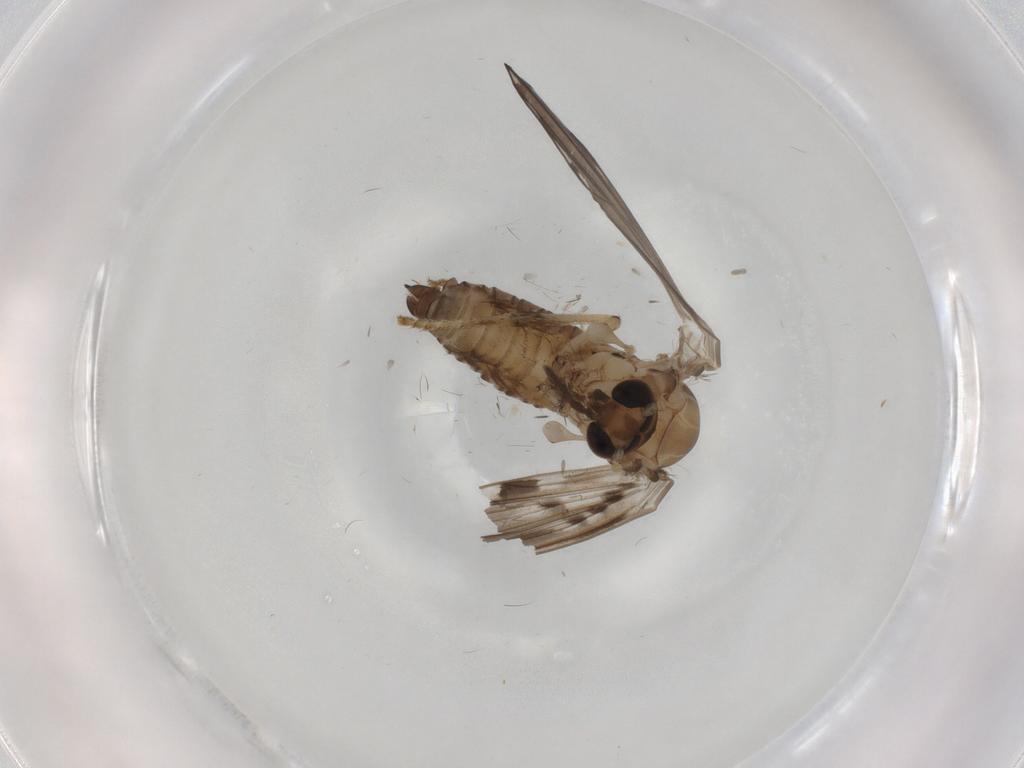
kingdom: Animalia
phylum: Arthropoda
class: Insecta
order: Diptera
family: Psychodidae
